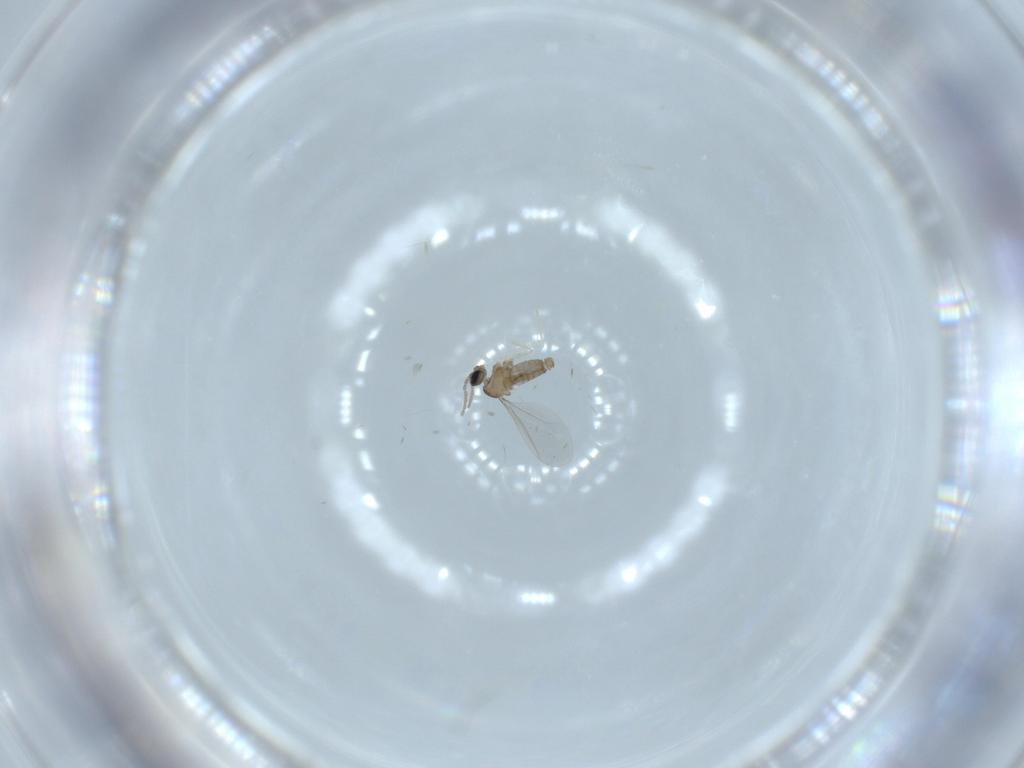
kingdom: Animalia
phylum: Arthropoda
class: Insecta
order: Diptera
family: Cecidomyiidae
